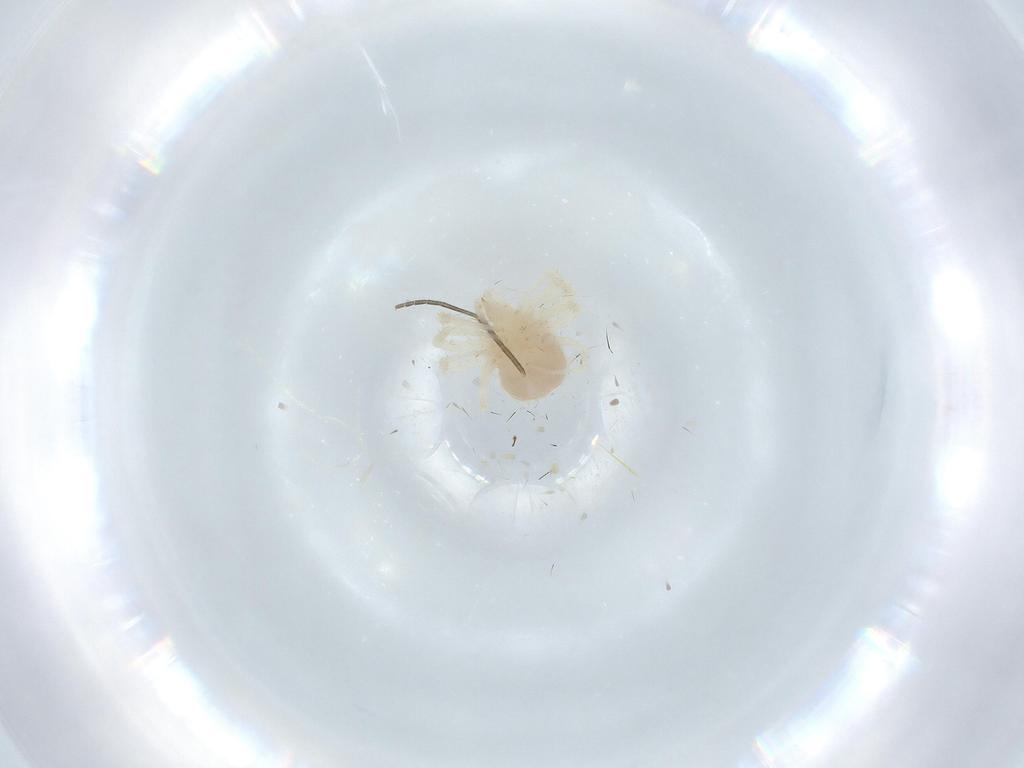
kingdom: Animalia
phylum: Arthropoda
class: Arachnida
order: Trombidiformes
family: Anystidae
